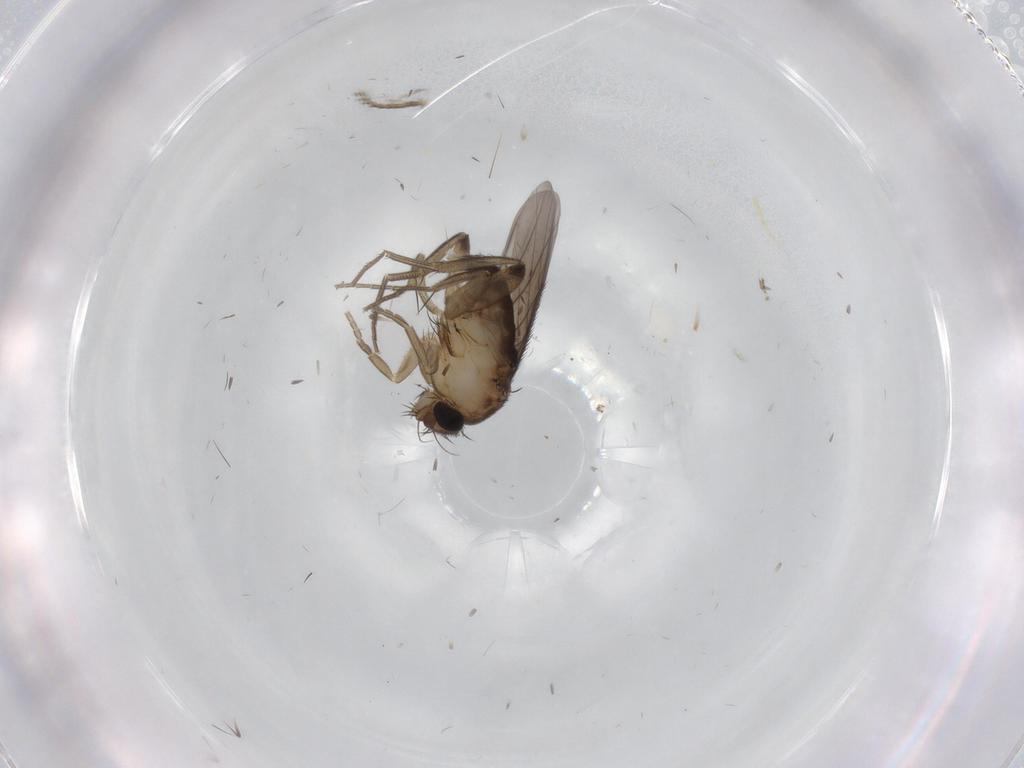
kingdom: Animalia
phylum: Arthropoda
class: Insecta
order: Diptera
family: Phoridae
